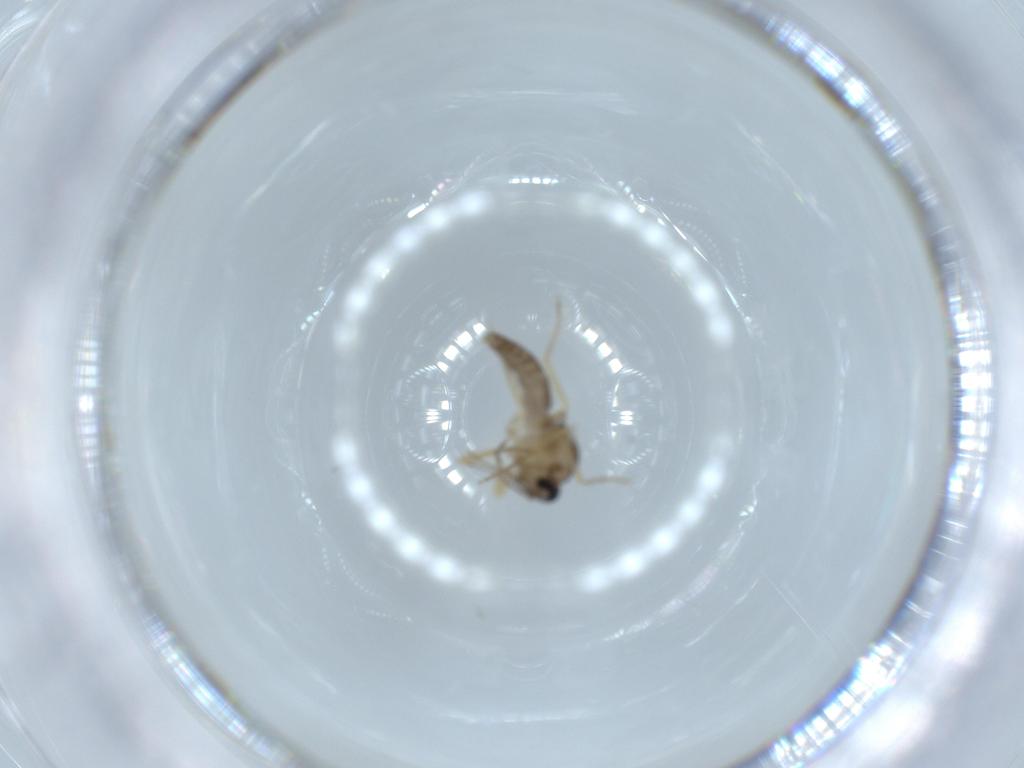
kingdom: Animalia
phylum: Arthropoda
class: Insecta
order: Diptera
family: Ceratopogonidae
